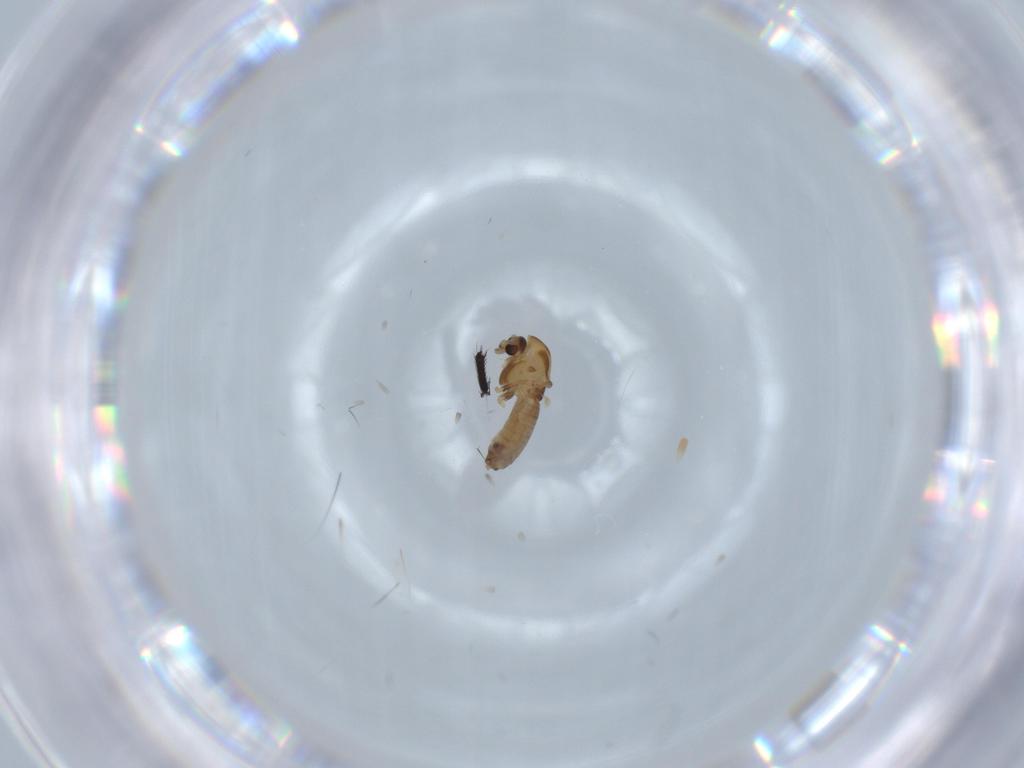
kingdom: Animalia
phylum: Arthropoda
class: Insecta
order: Diptera
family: Chironomidae
